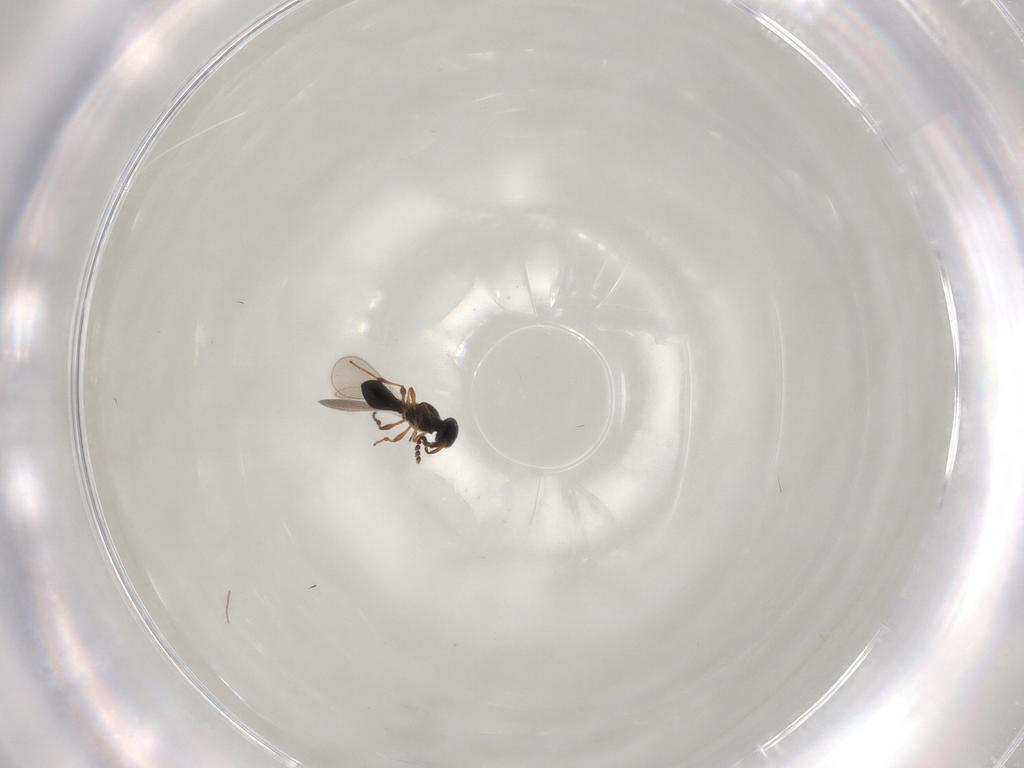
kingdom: Animalia
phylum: Arthropoda
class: Insecta
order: Hymenoptera
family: Platygastridae
